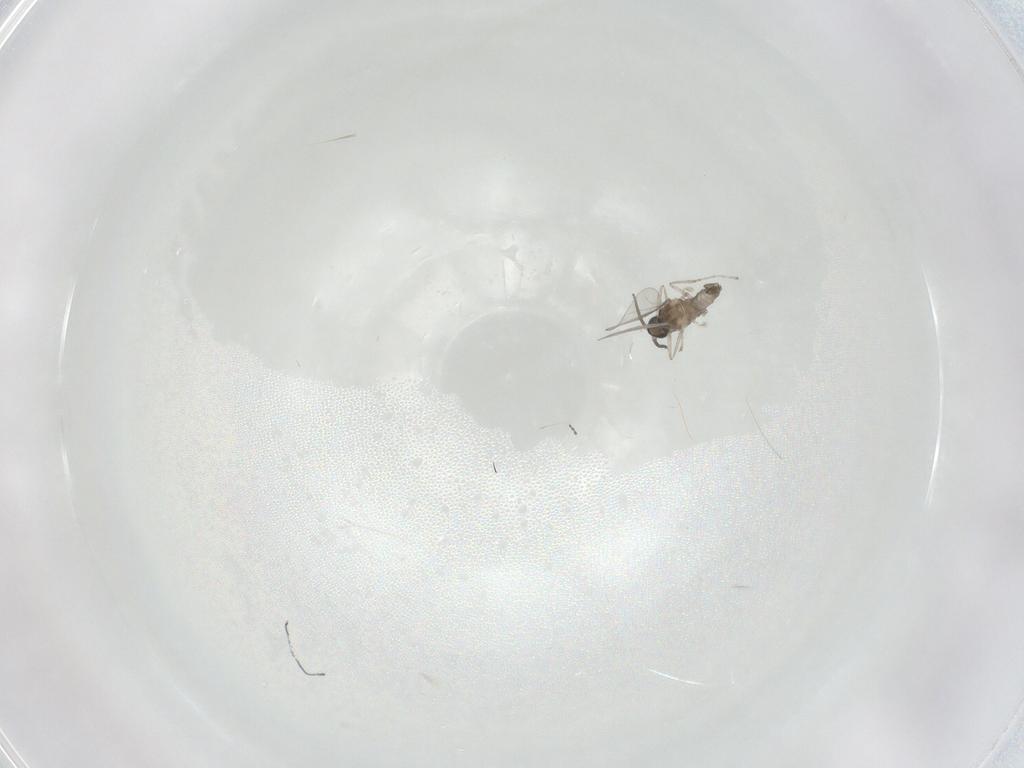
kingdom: Animalia
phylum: Arthropoda
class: Insecta
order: Diptera
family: Cecidomyiidae
